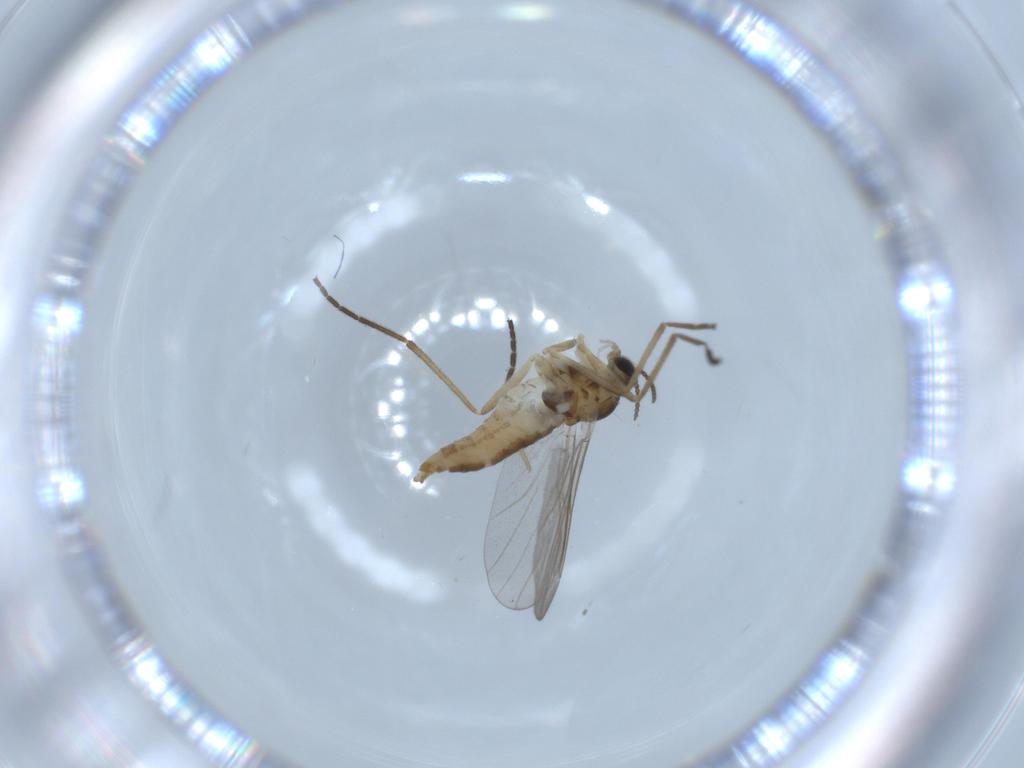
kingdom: Animalia
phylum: Arthropoda
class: Insecta
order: Diptera
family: Cecidomyiidae
